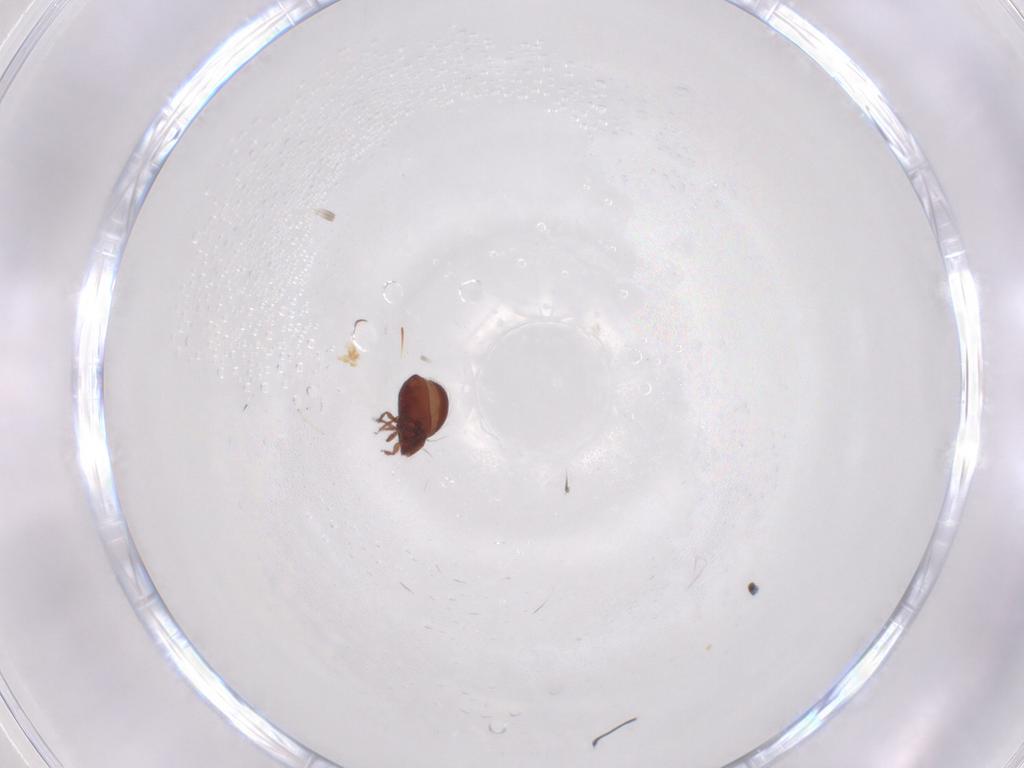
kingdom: Animalia
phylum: Arthropoda
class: Arachnida
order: Sarcoptiformes
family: Oribatulidae
